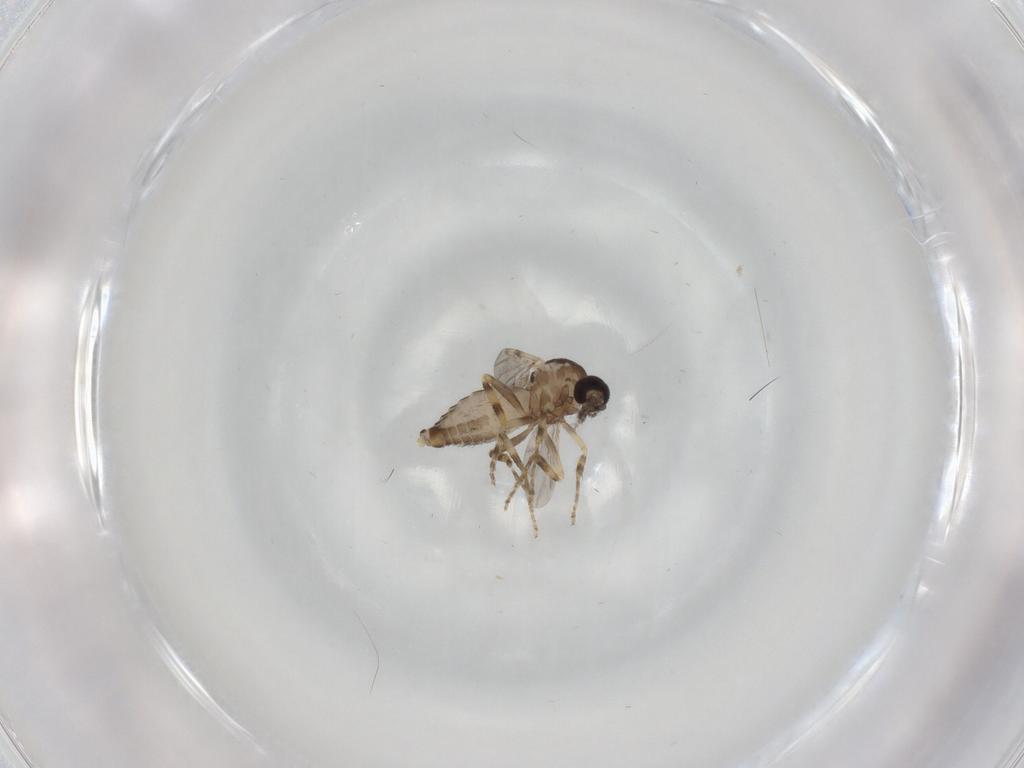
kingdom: Animalia
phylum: Arthropoda
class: Insecta
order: Diptera
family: Ceratopogonidae
